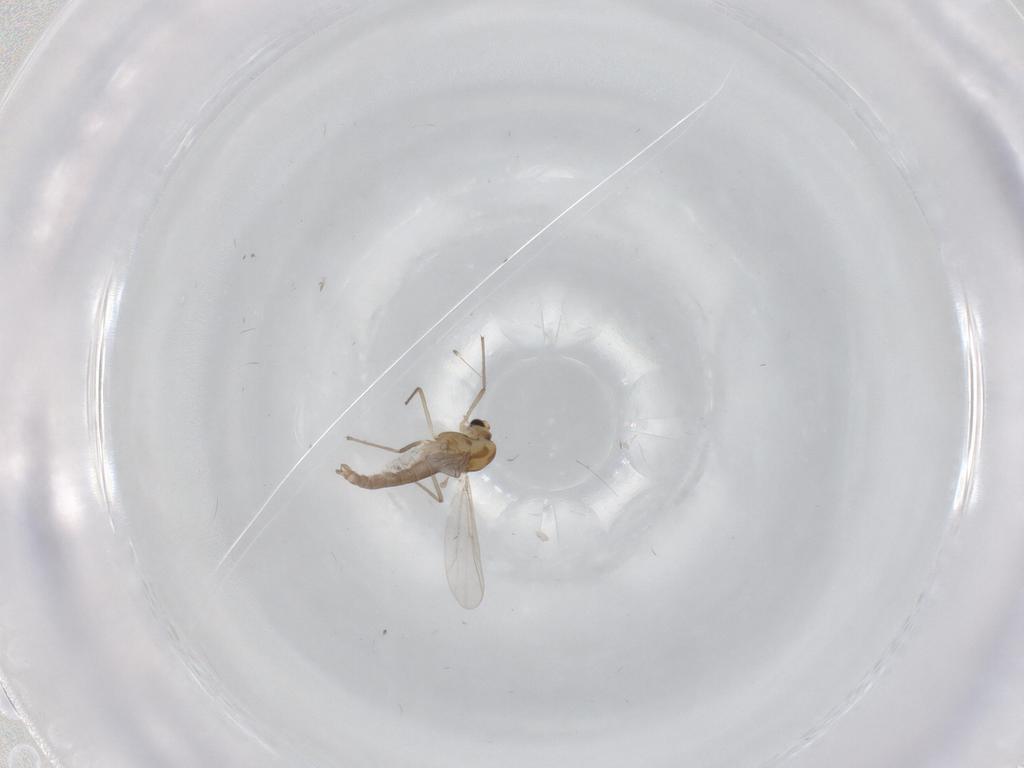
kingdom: Animalia
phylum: Arthropoda
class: Insecta
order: Diptera
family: Chironomidae
